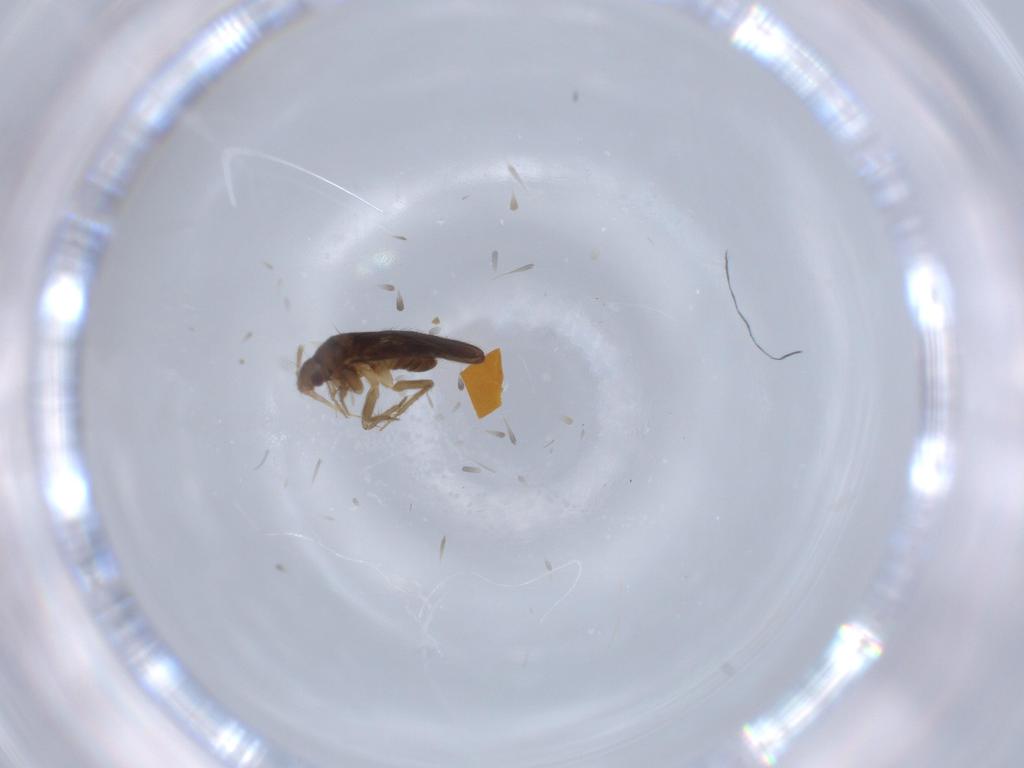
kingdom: Animalia
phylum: Arthropoda
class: Insecta
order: Hemiptera
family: Ceratocombidae
